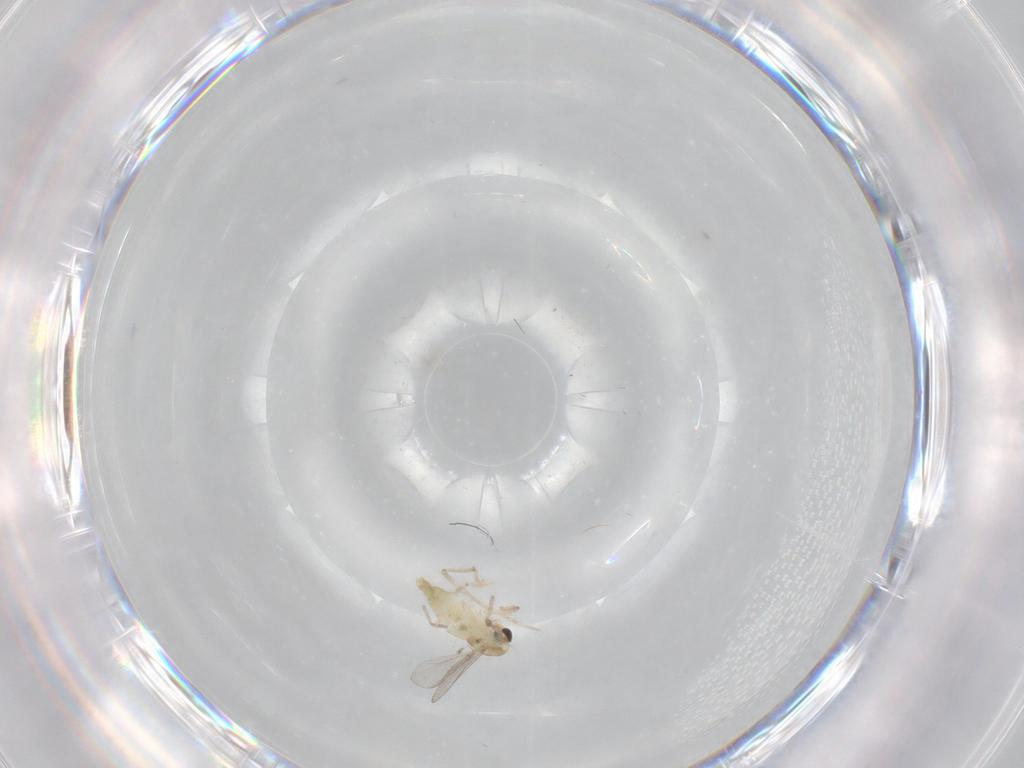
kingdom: Animalia
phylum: Arthropoda
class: Insecta
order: Diptera
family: Chironomidae
